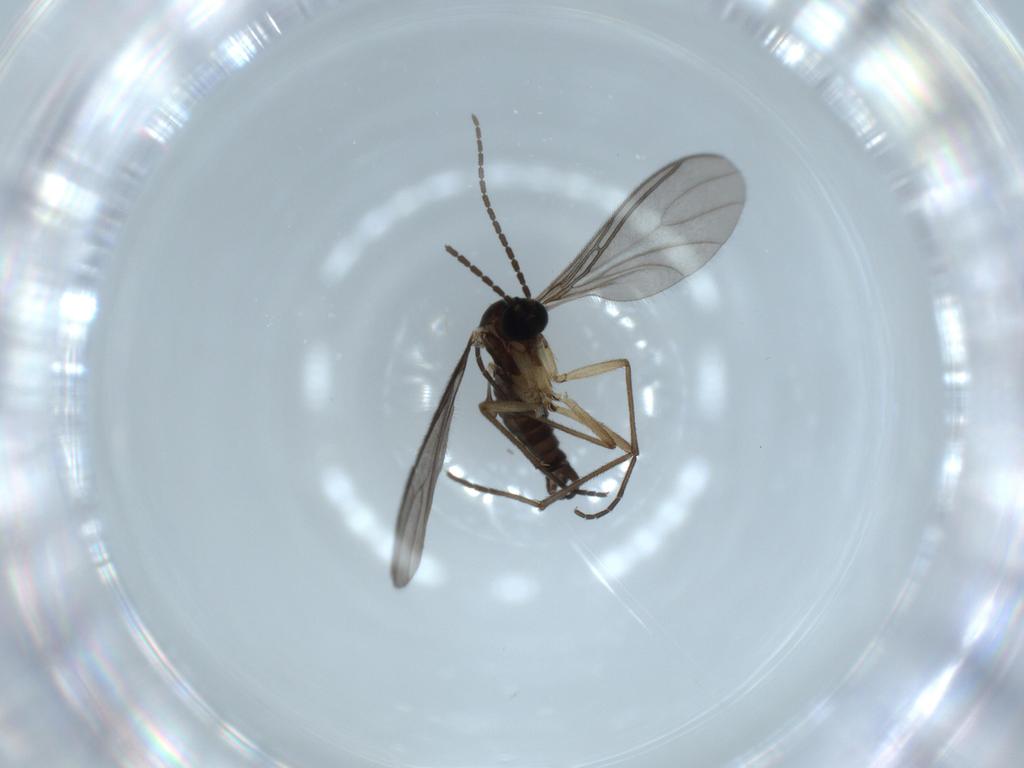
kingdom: Animalia
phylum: Arthropoda
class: Insecta
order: Diptera
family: Sciaridae
